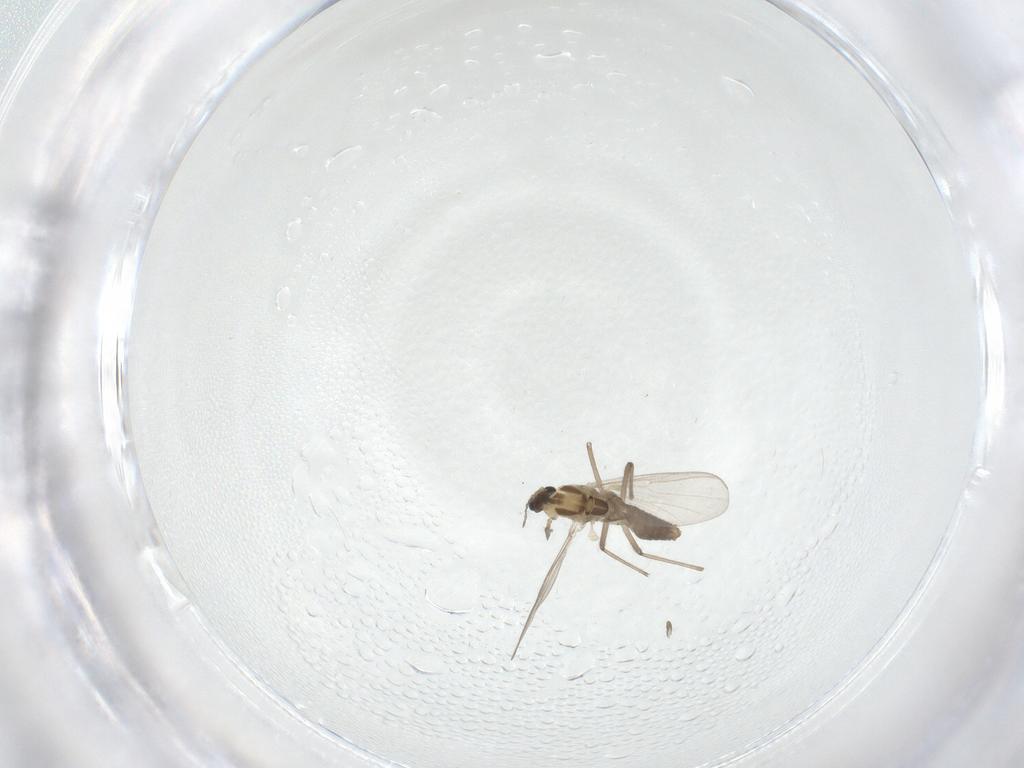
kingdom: Animalia
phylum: Arthropoda
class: Insecta
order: Diptera
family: Chironomidae
